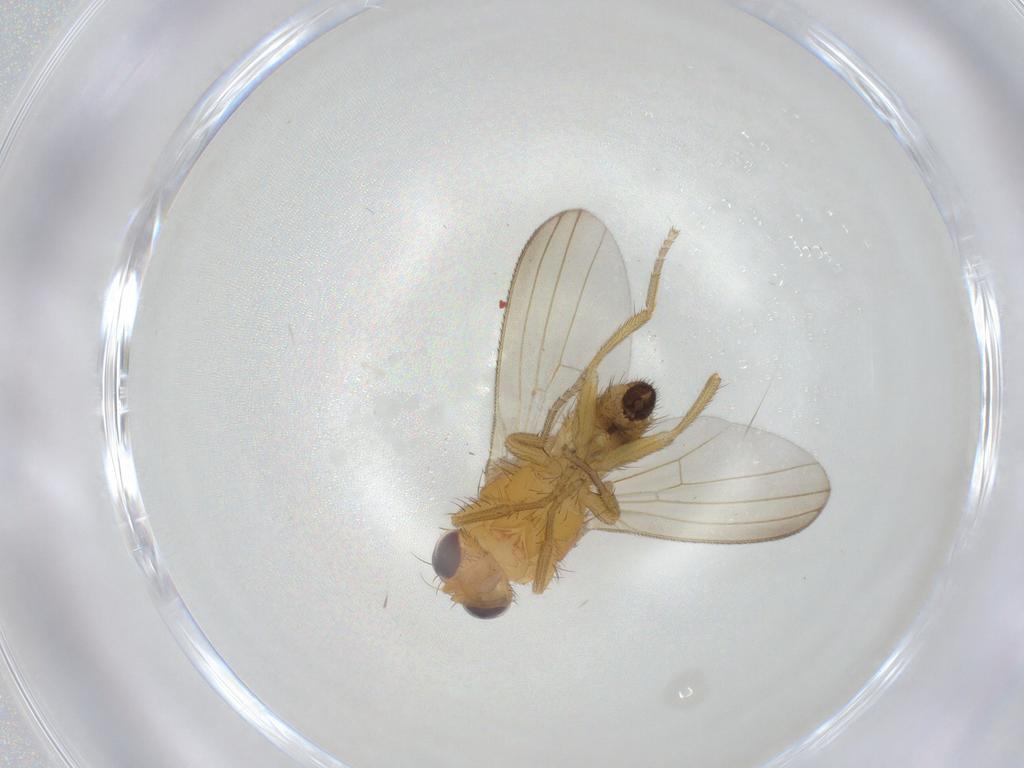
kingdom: Animalia
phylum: Arthropoda
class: Insecta
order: Diptera
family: Natalimyzidae
